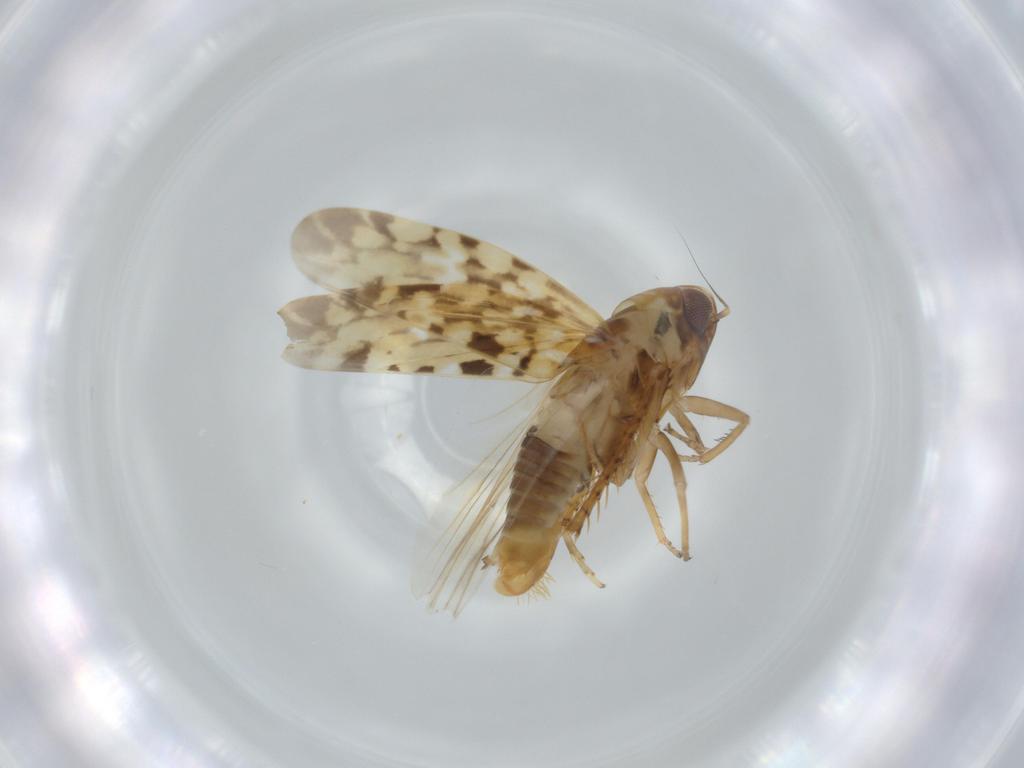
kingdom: Animalia
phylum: Arthropoda
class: Insecta
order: Hemiptera
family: Cicadellidae
